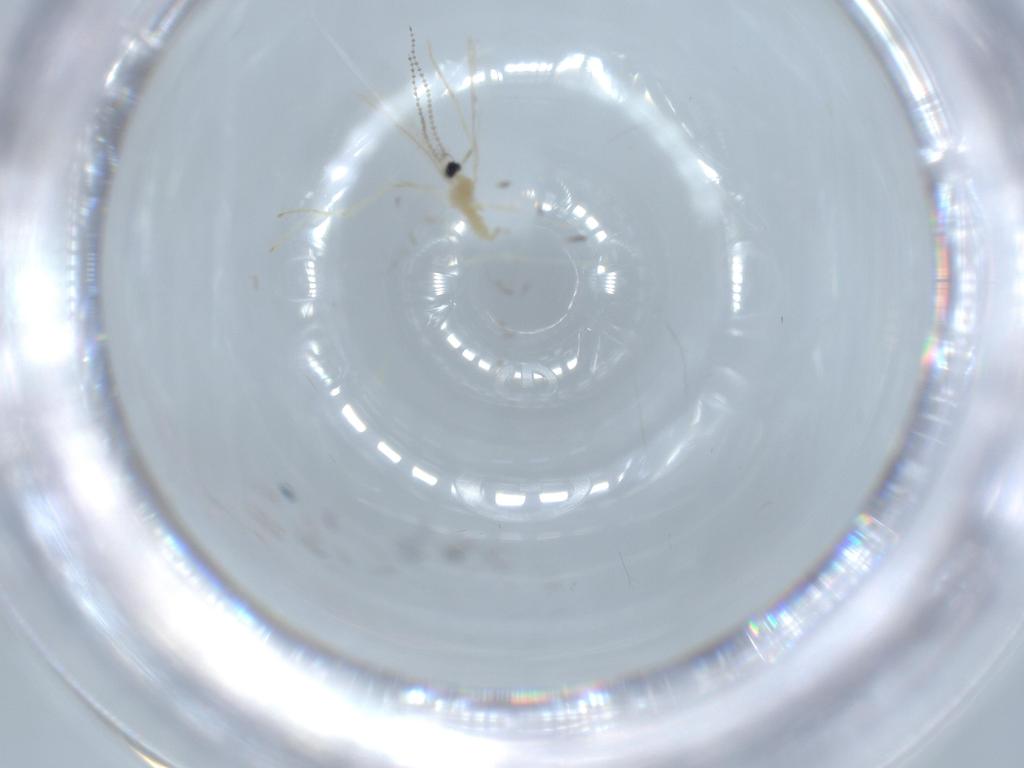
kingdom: Animalia
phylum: Arthropoda
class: Insecta
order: Diptera
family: Cecidomyiidae
